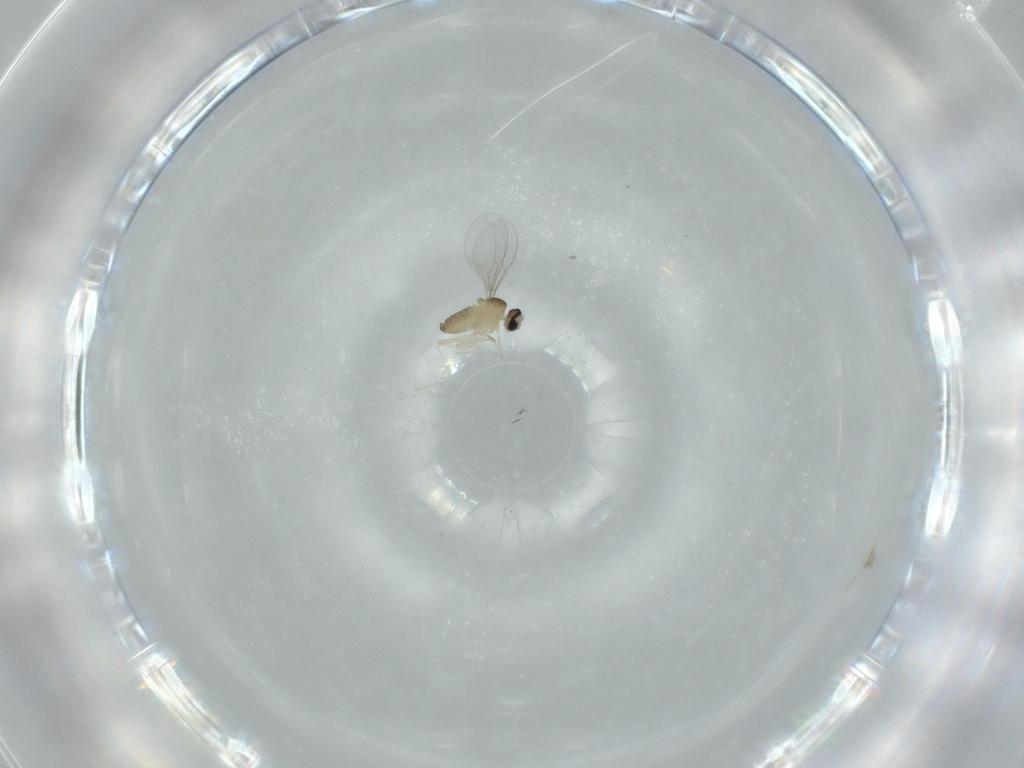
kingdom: Animalia
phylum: Arthropoda
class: Insecta
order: Diptera
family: Cecidomyiidae
